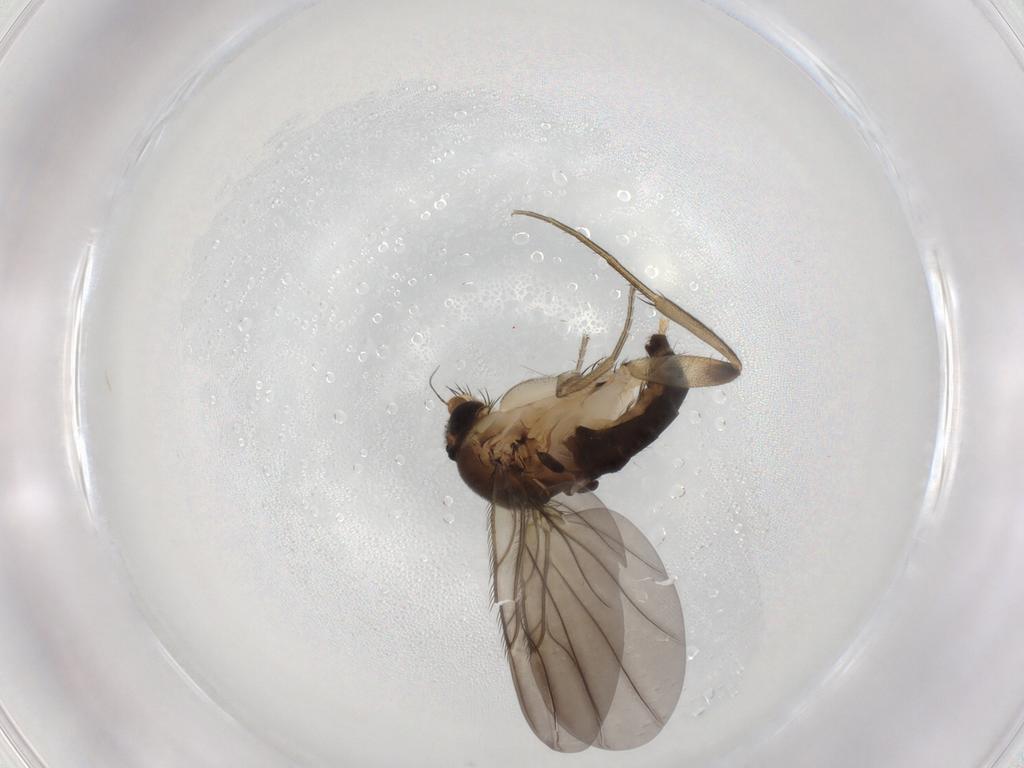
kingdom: Animalia
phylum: Arthropoda
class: Insecta
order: Diptera
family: Phoridae
